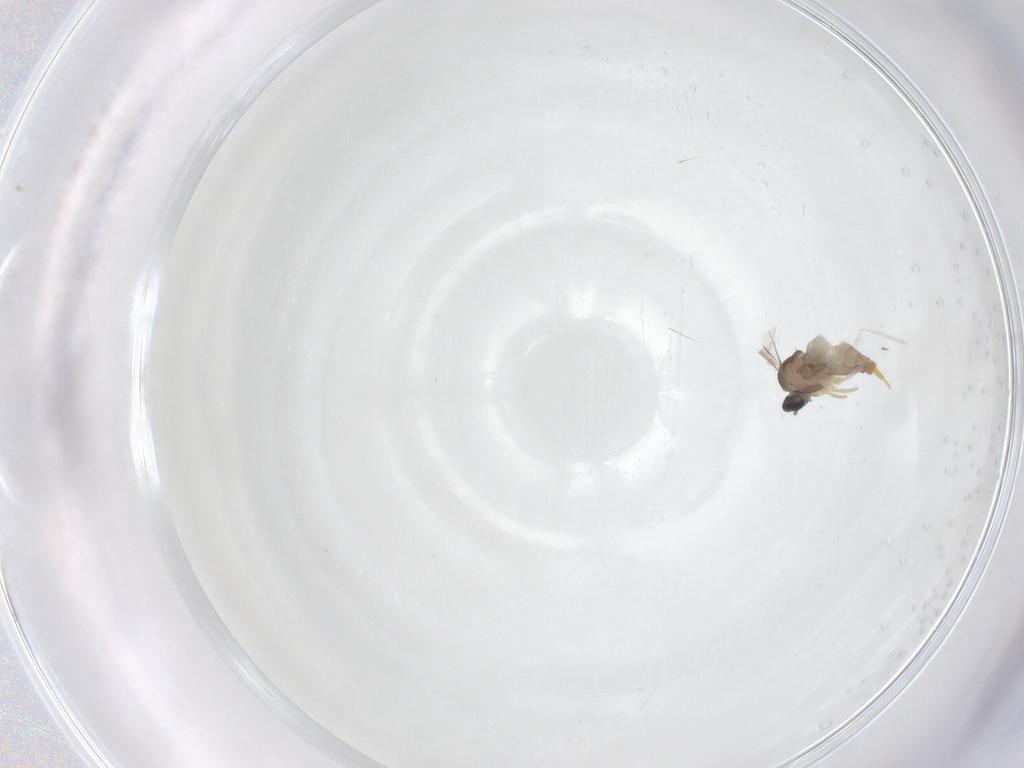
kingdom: Animalia
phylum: Arthropoda
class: Insecta
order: Diptera
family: Cecidomyiidae
